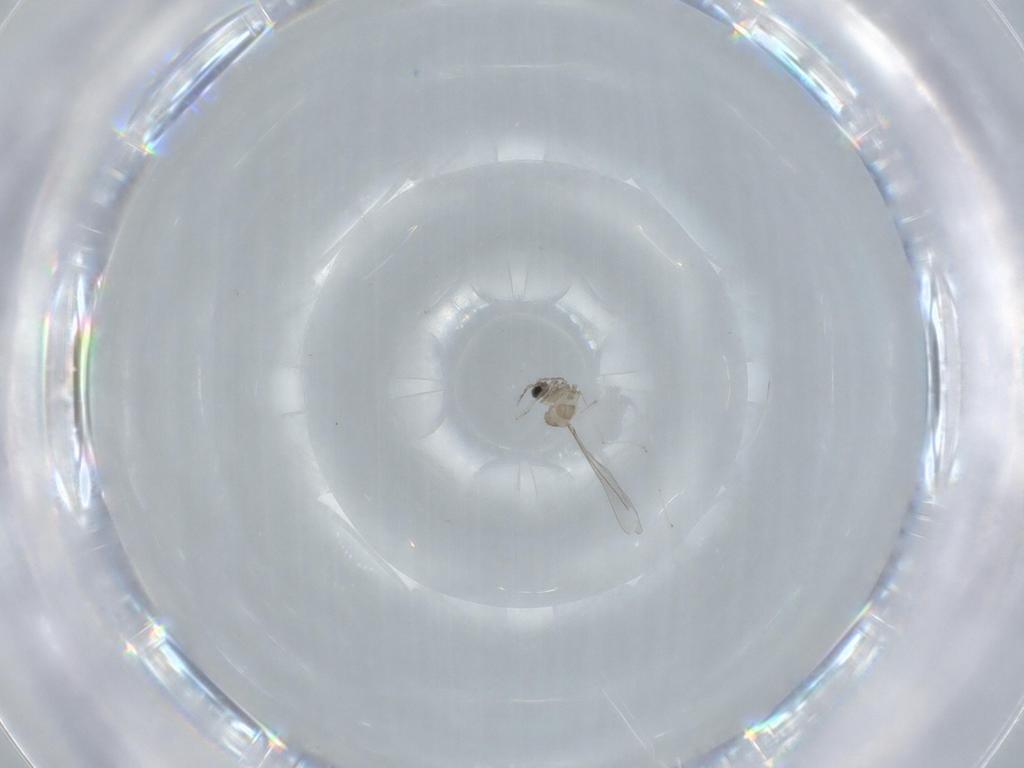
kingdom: Animalia
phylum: Arthropoda
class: Insecta
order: Diptera
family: Cecidomyiidae
